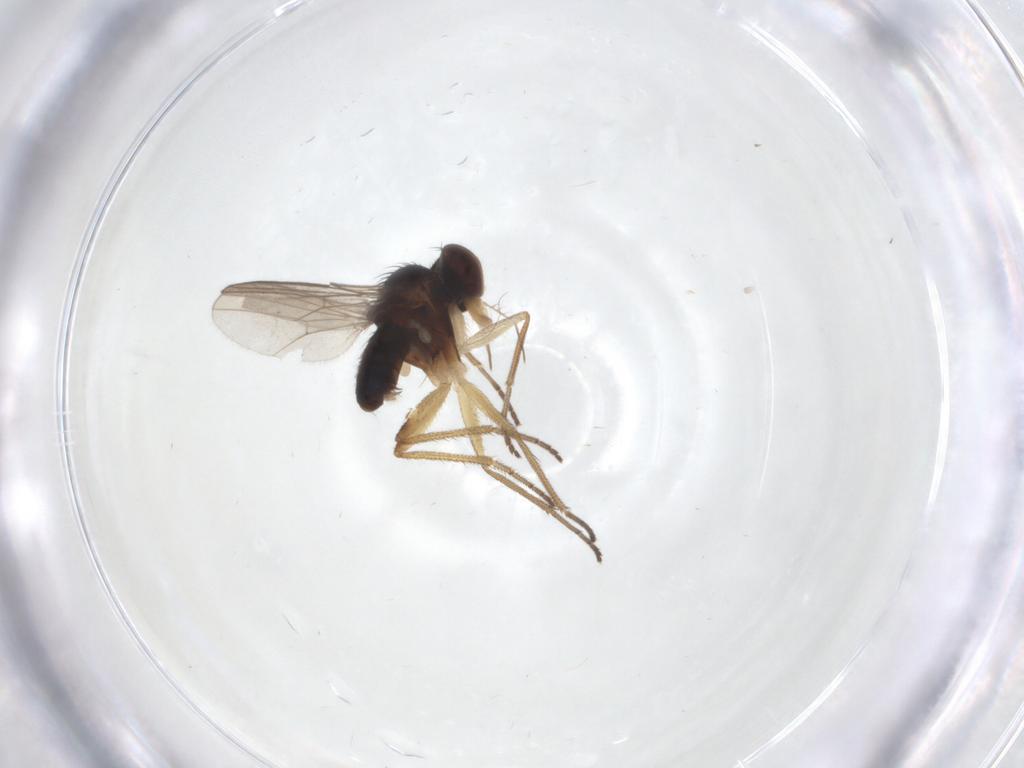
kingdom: Animalia
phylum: Arthropoda
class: Insecta
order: Diptera
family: Dolichopodidae
